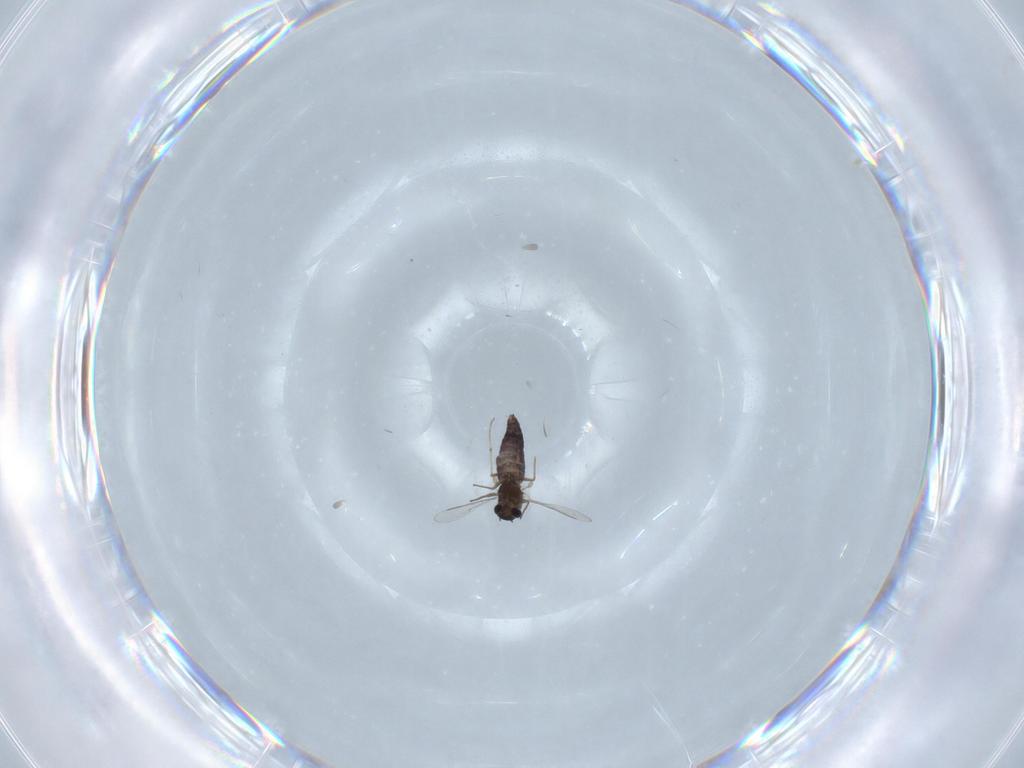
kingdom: Animalia
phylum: Arthropoda
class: Insecta
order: Diptera
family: Chironomidae
